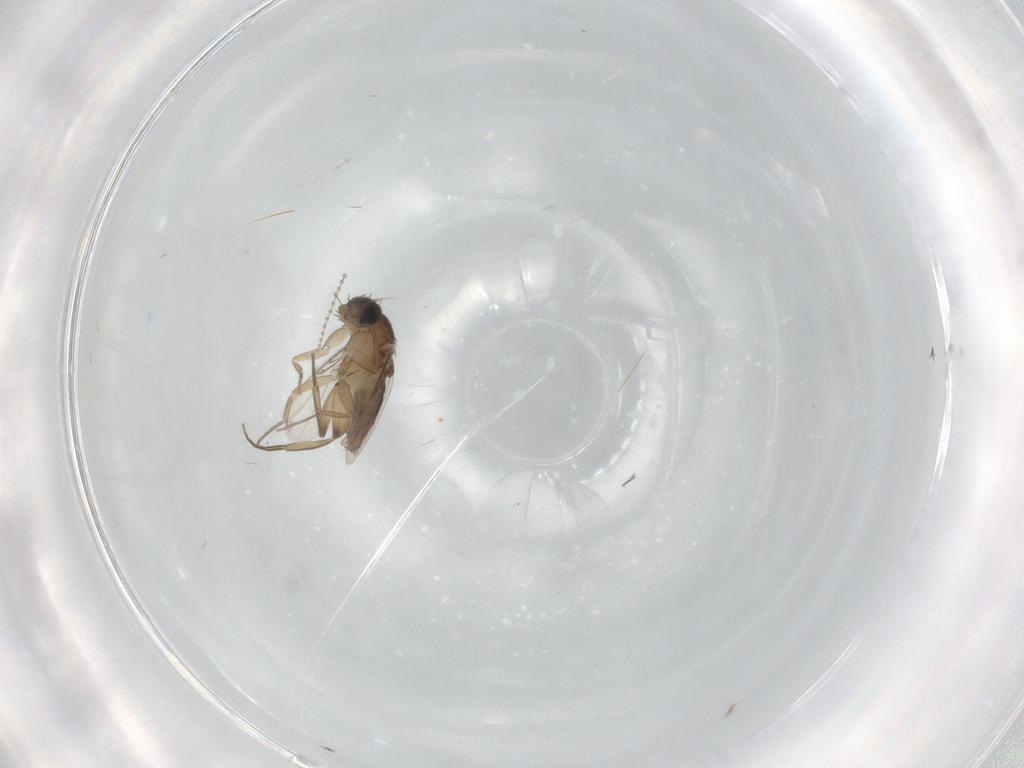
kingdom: Animalia
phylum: Arthropoda
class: Insecta
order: Diptera
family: Phoridae
